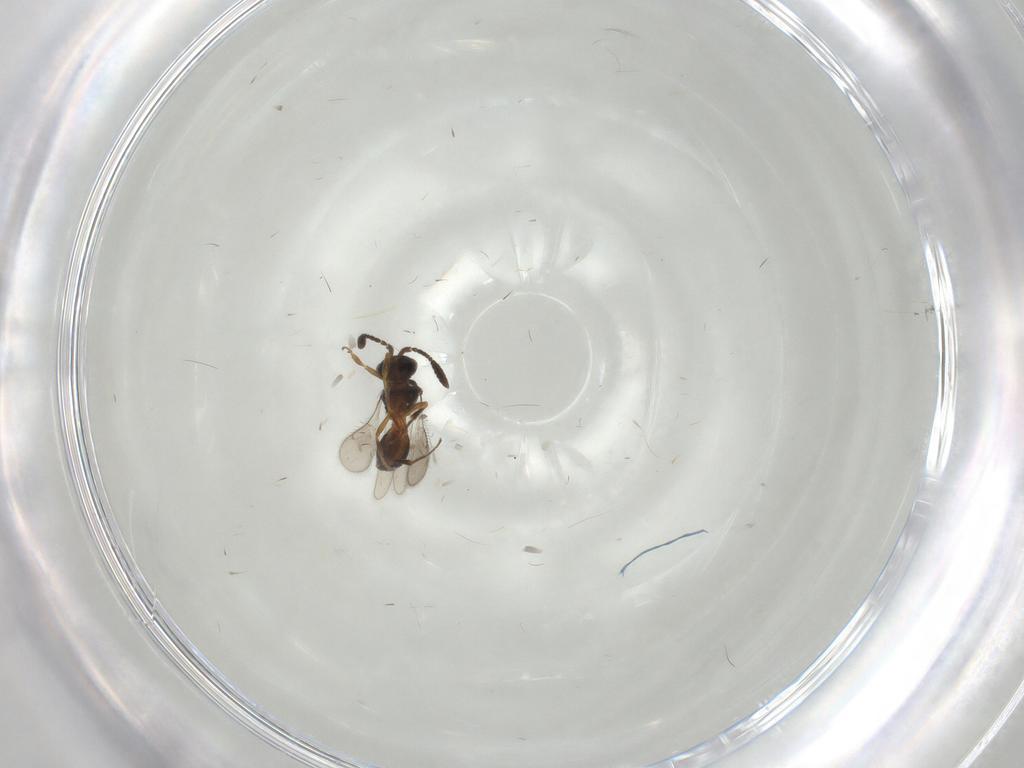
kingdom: Animalia
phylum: Arthropoda
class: Insecta
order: Hymenoptera
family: Scelionidae
